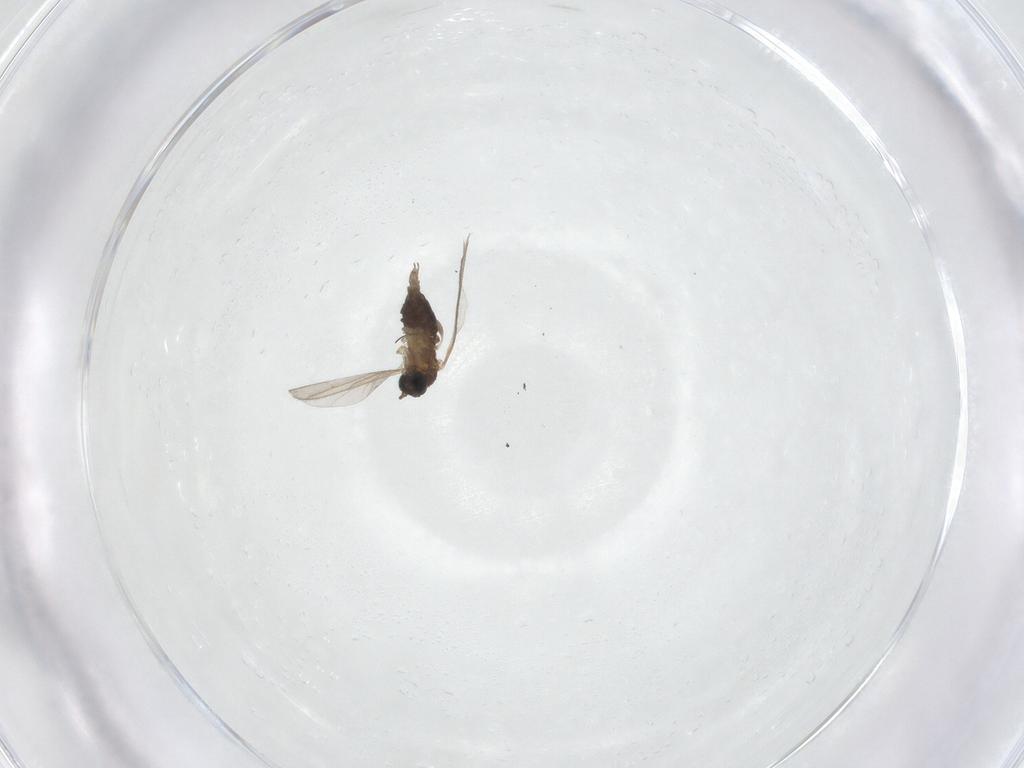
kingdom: Animalia
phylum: Arthropoda
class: Insecta
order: Diptera
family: Sciaridae
